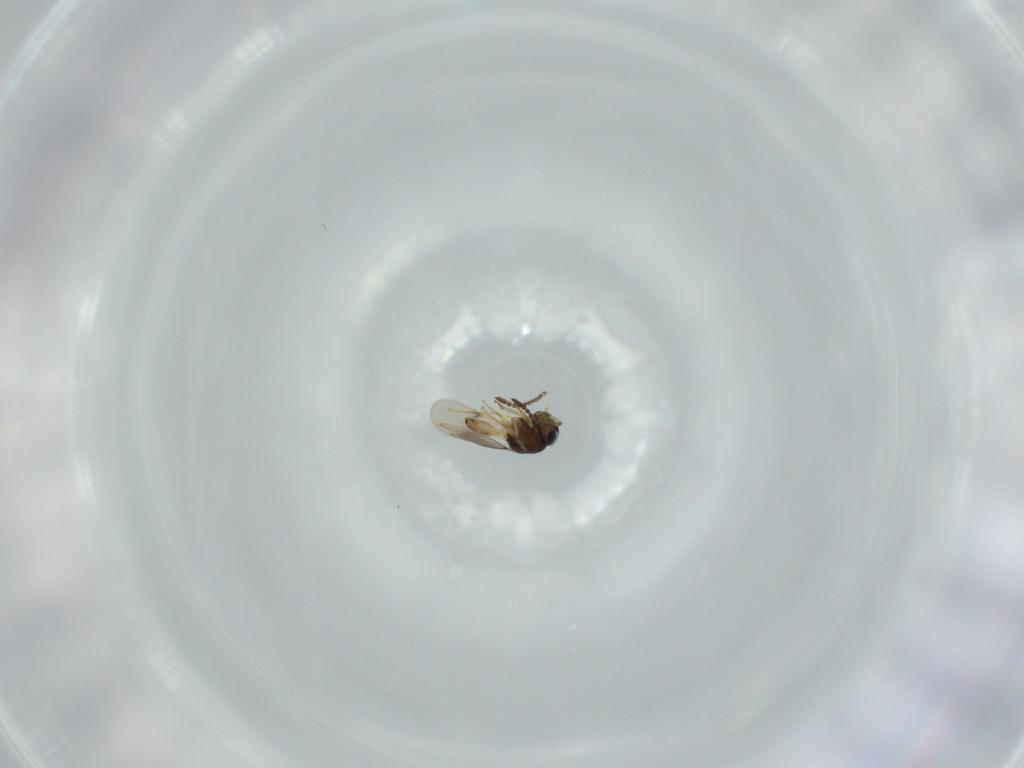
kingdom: Animalia
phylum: Arthropoda
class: Insecta
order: Hymenoptera
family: Scelionidae
